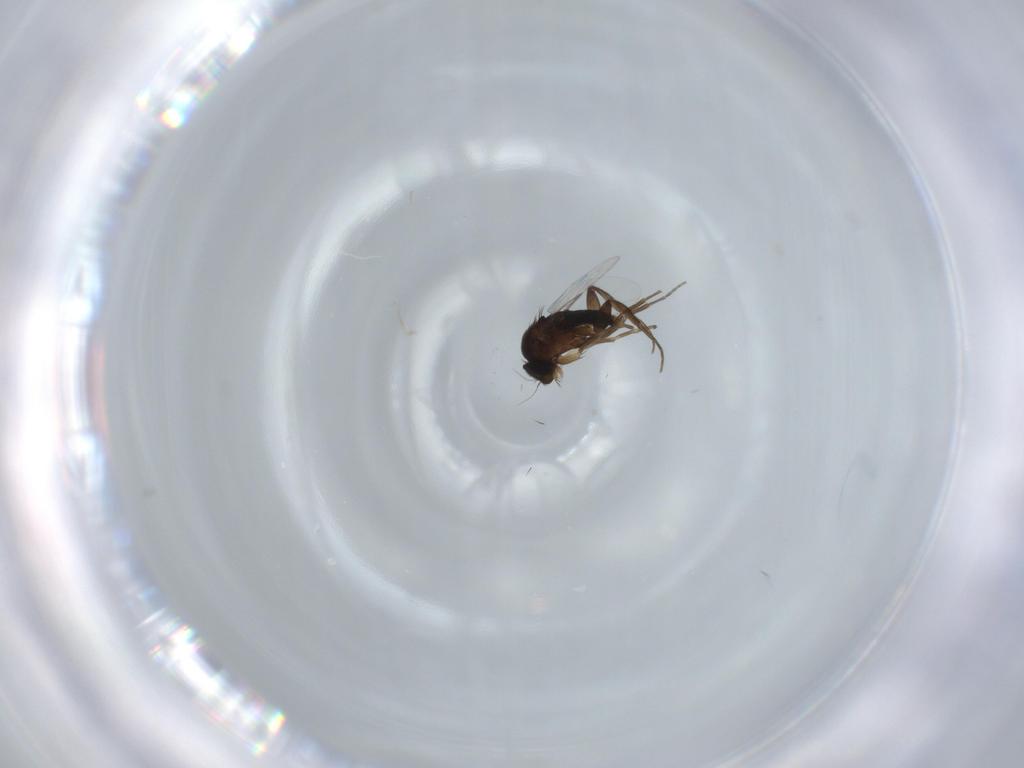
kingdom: Animalia
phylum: Arthropoda
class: Insecta
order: Diptera
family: Phoridae
